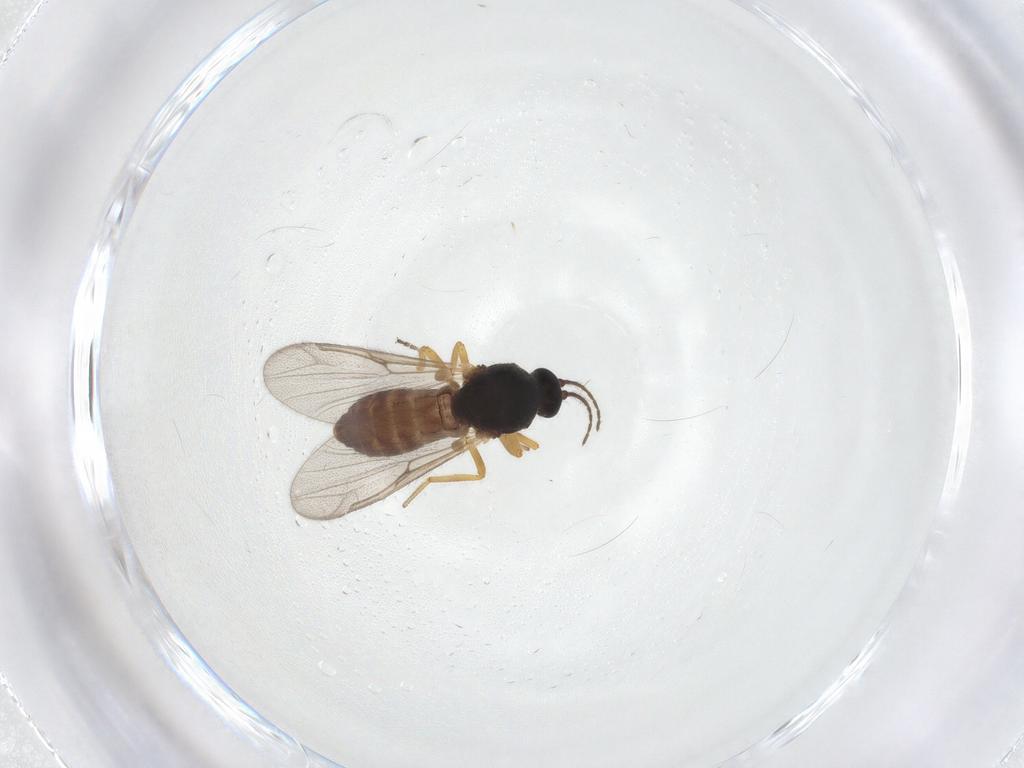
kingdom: Animalia
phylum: Arthropoda
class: Insecta
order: Diptera
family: Ceratopogonidae
